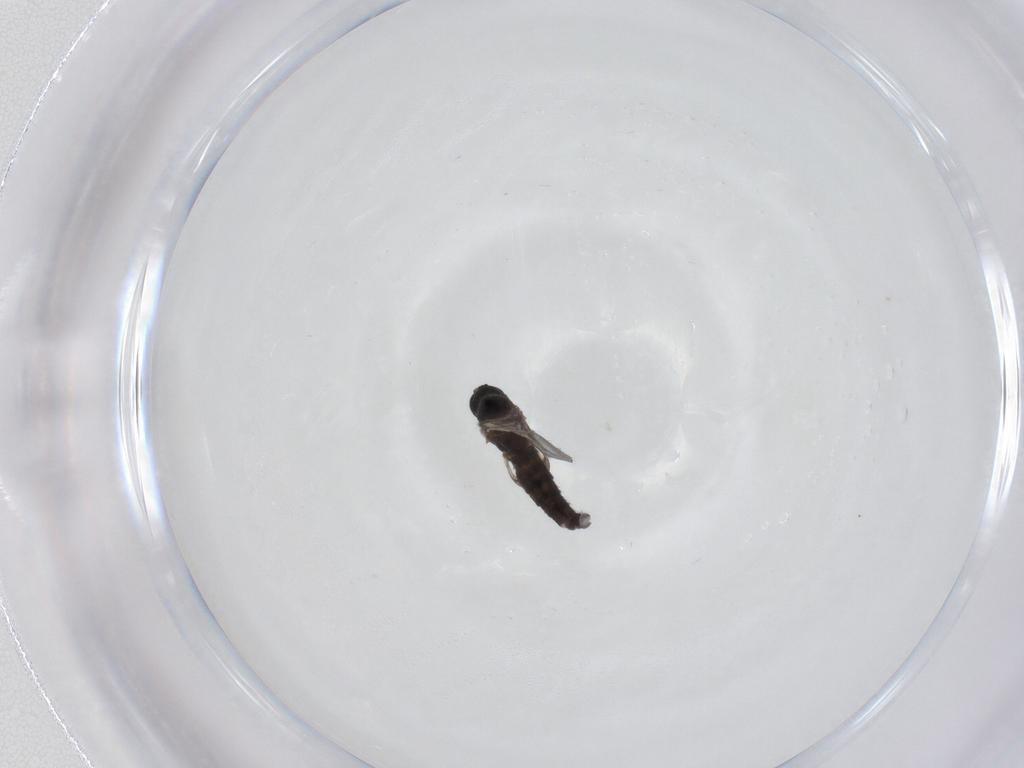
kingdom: Animalia
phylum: Arthropoda
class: Insecta
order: Diptera
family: Sciaridae
